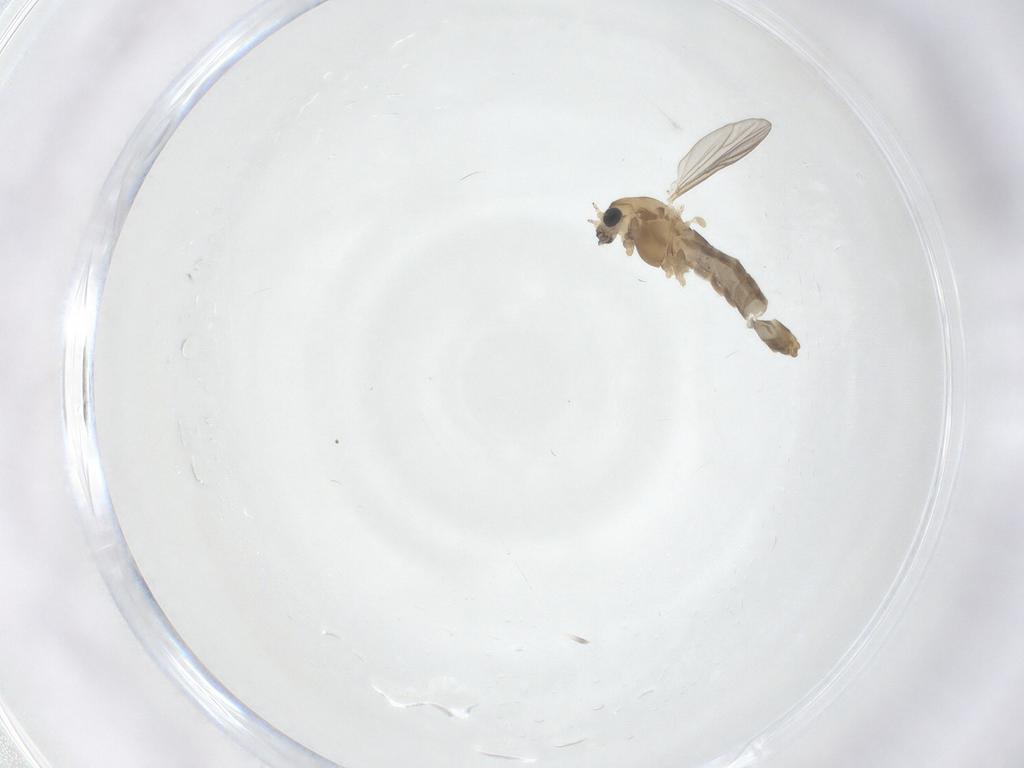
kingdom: Animalia
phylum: Arthropoda
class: Insecta
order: Diptera
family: Chironomidae
